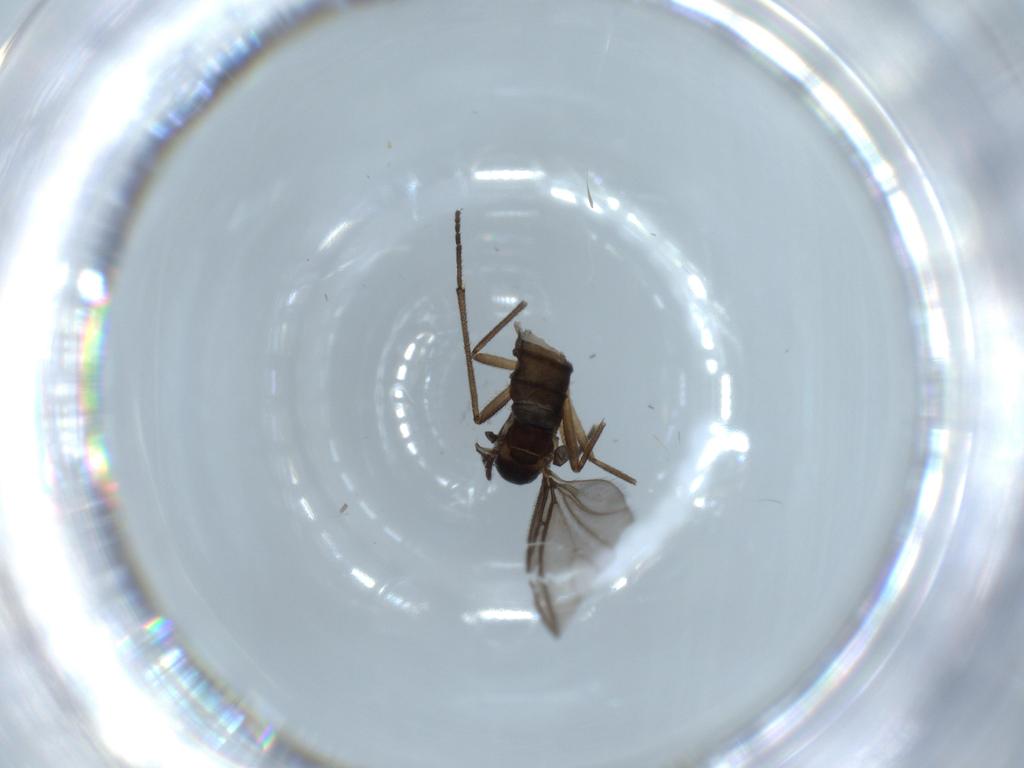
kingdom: Animalia
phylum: Arthropoda
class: Insecta
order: Diptera
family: Sciaridae
